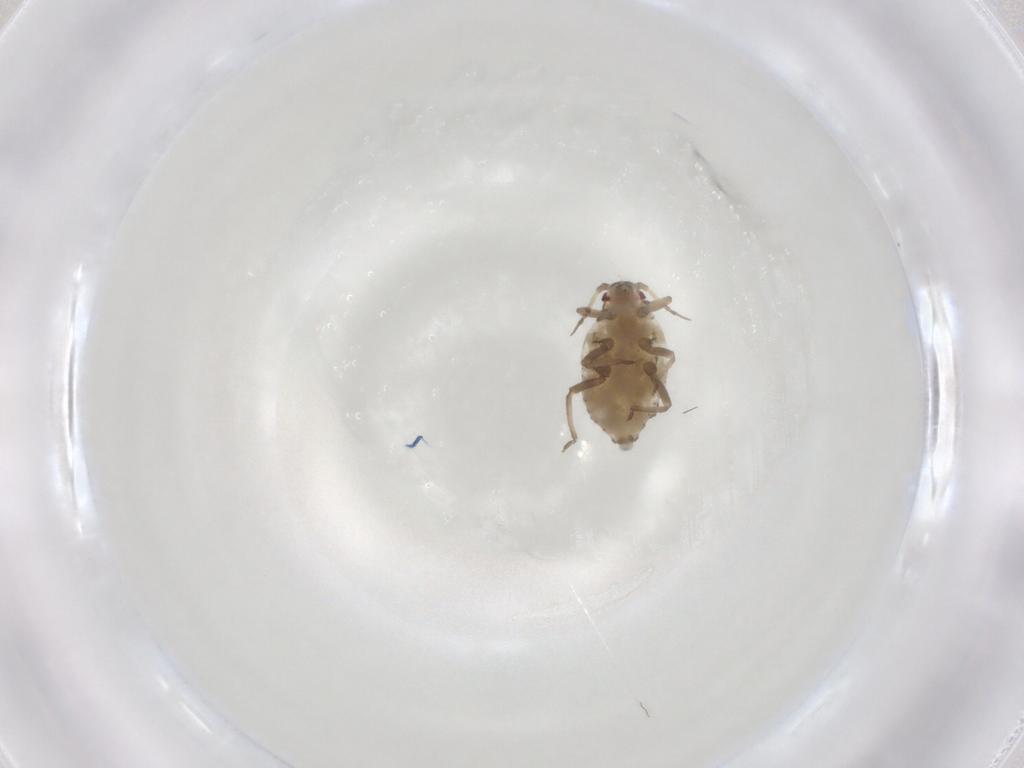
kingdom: Animalia
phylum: Arthropoda
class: Insecta
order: Hemiptera
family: Aphididae
